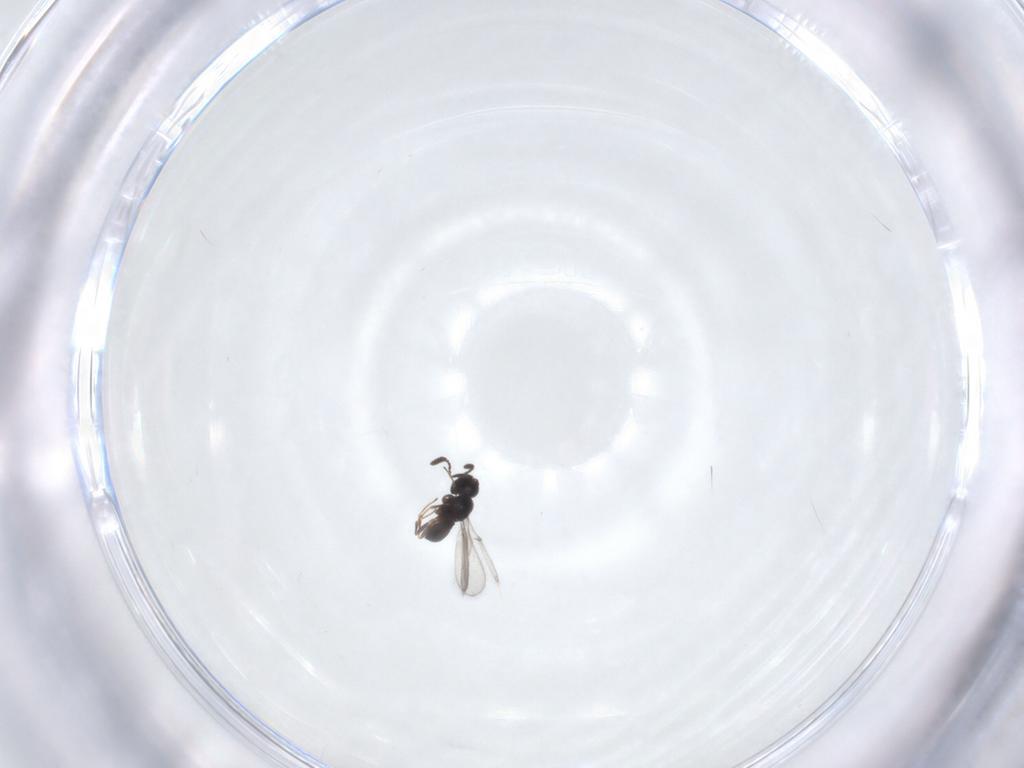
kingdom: Animalia
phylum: Arthropoda
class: Insecta
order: Hymenoptera
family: Scelionidae
